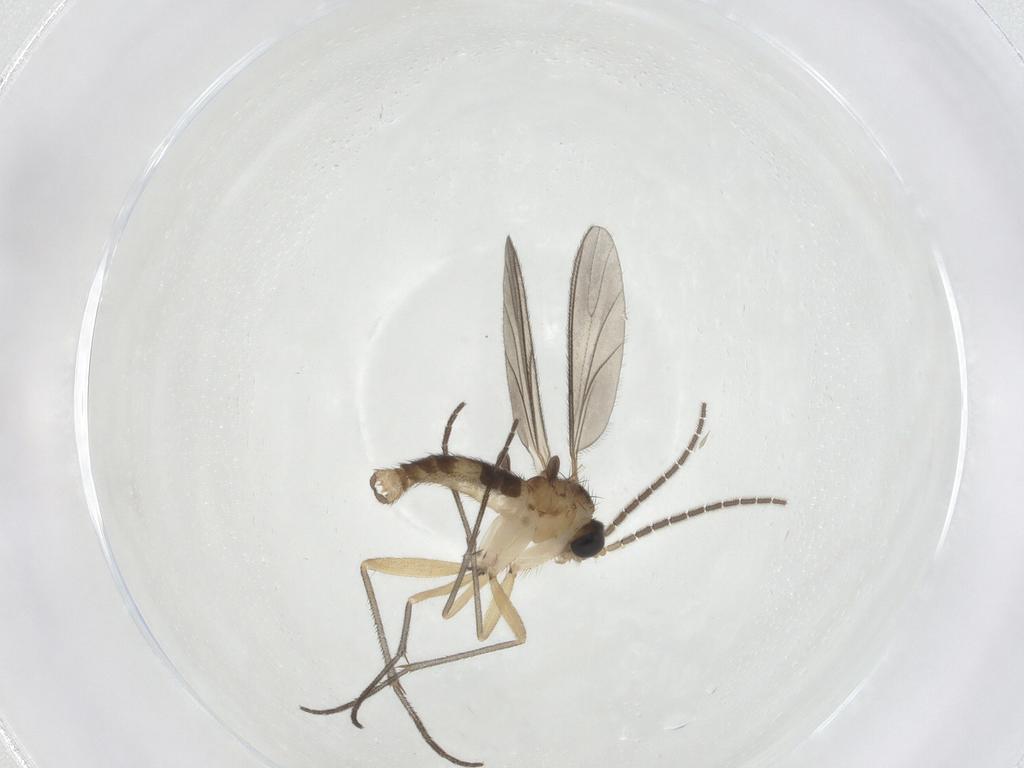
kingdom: Animalia
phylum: Arthropoda
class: Insecta
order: Diptera
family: Sciaridae
